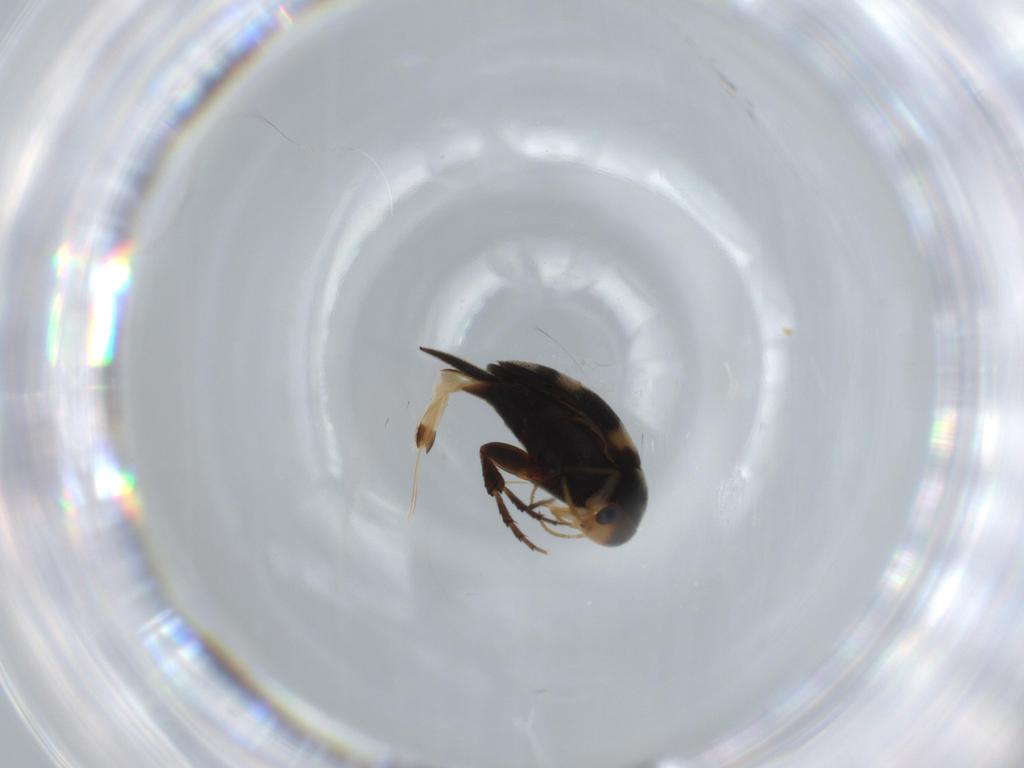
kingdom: Animalia
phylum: Arthropoda
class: Insecta
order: Coleoptera
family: Mordellidae
